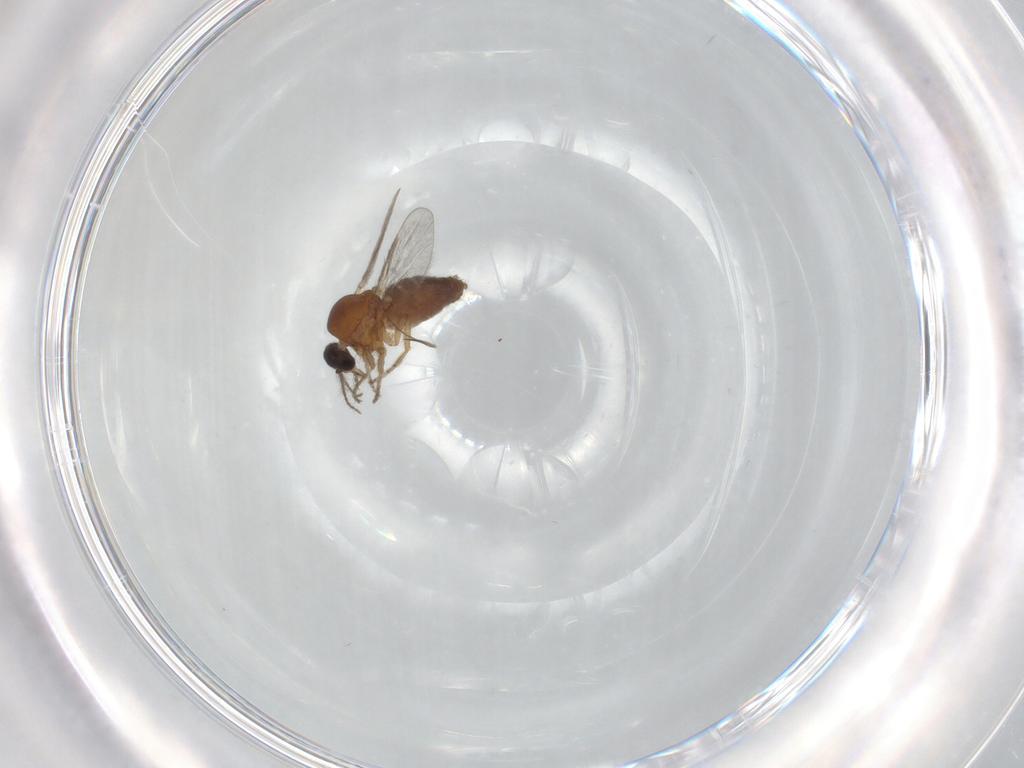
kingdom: Animalia
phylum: Arthropoda
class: Insecta
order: Diptera
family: Ceratopogonidae
